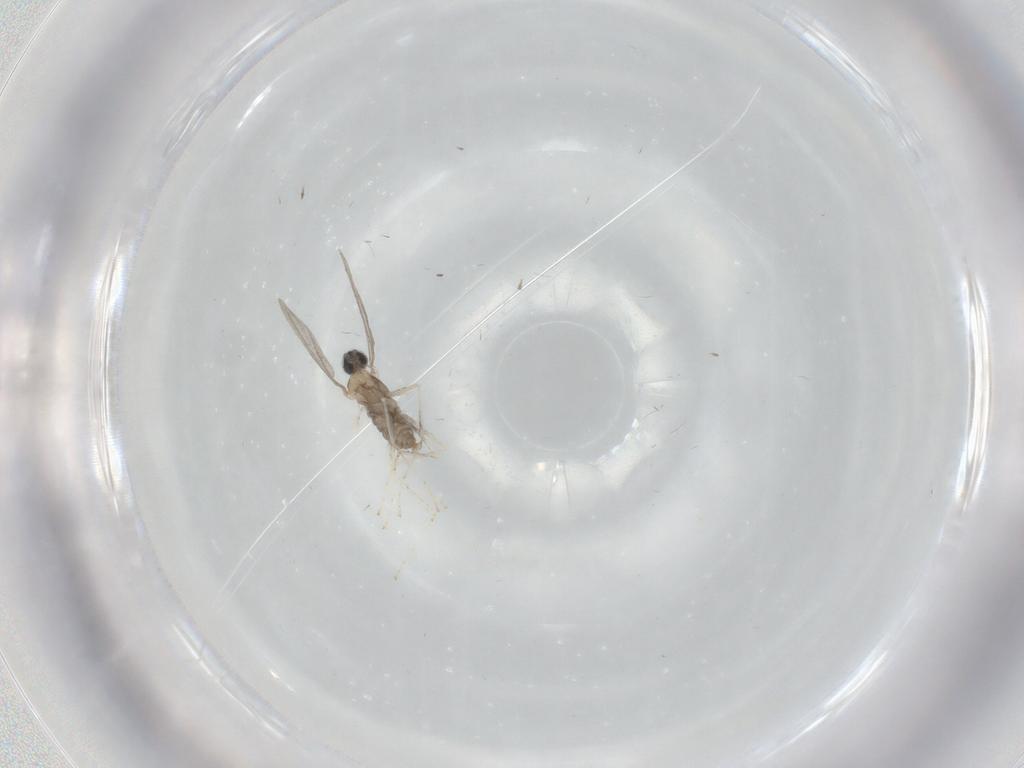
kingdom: Animalia
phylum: Arthropoda
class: Insecta
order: Diptera
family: Cecidomyiidae
